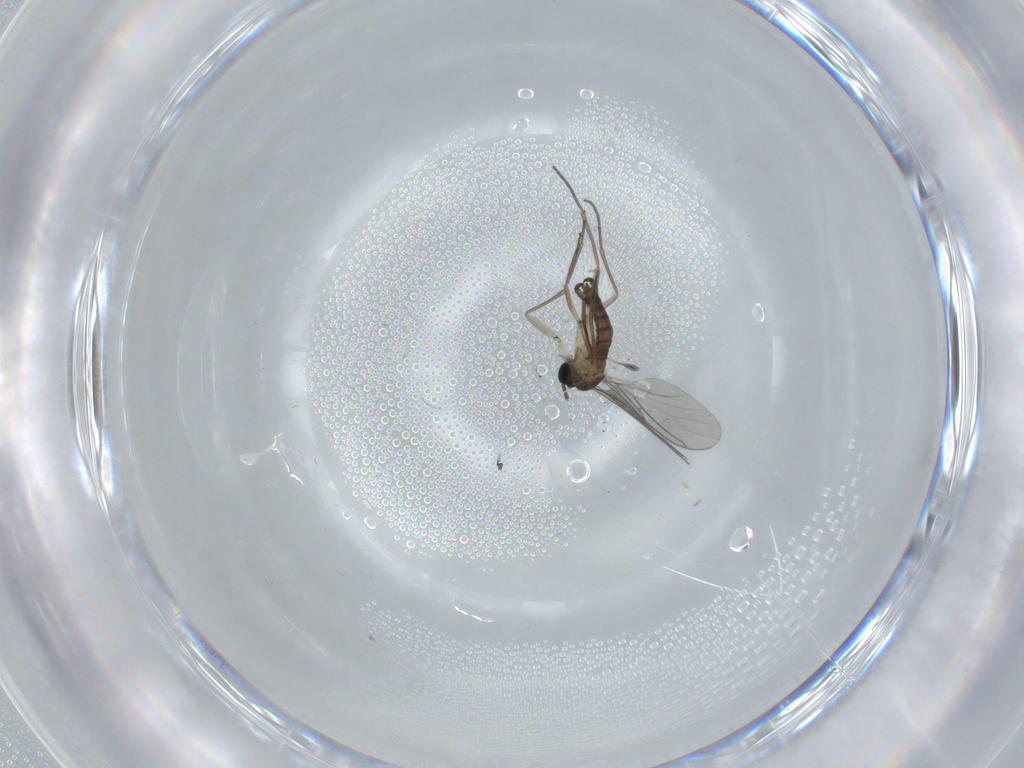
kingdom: Animalia
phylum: Arthropoda
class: Insecta
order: Diptera
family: Sciaridae
